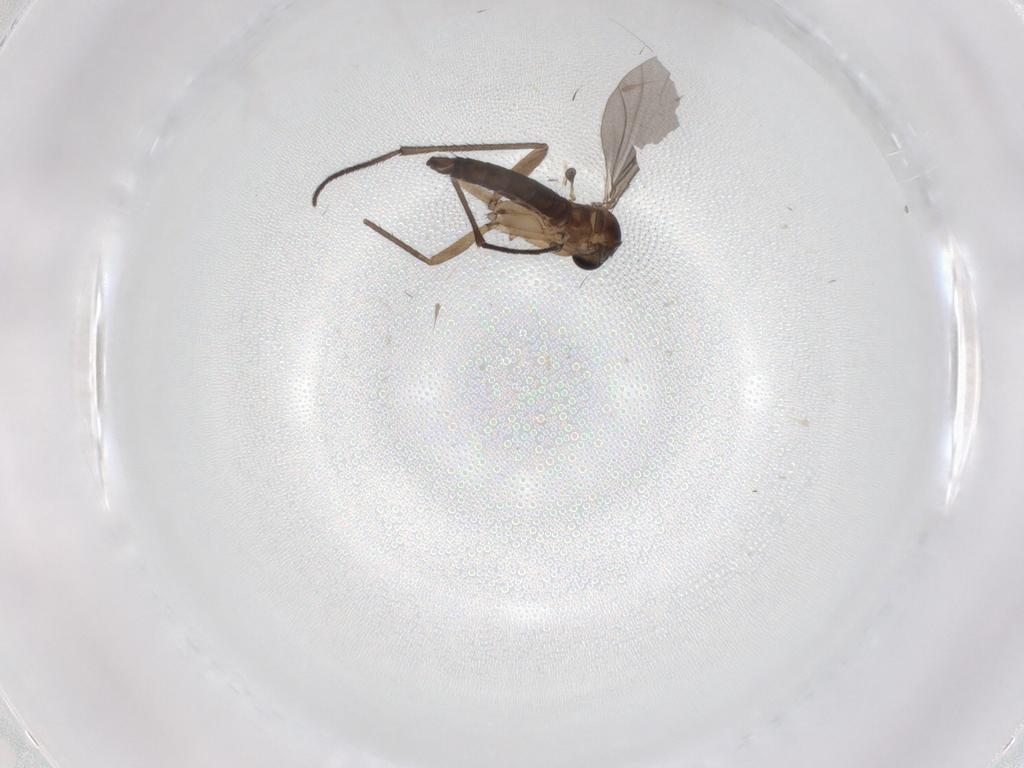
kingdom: Animalia
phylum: Arthropoda
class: Insecta
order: Diptera
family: Sciaridae
